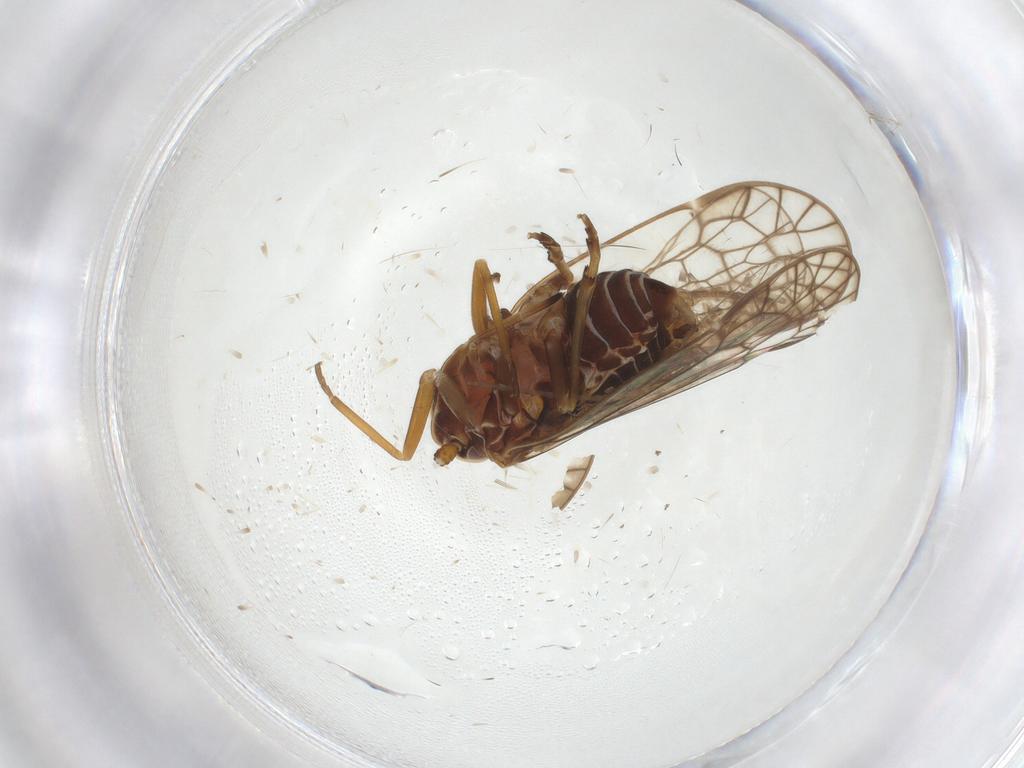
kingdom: Animalia
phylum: Arthropoda
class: Insecta
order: Hemiptera
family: Kinnaridae
